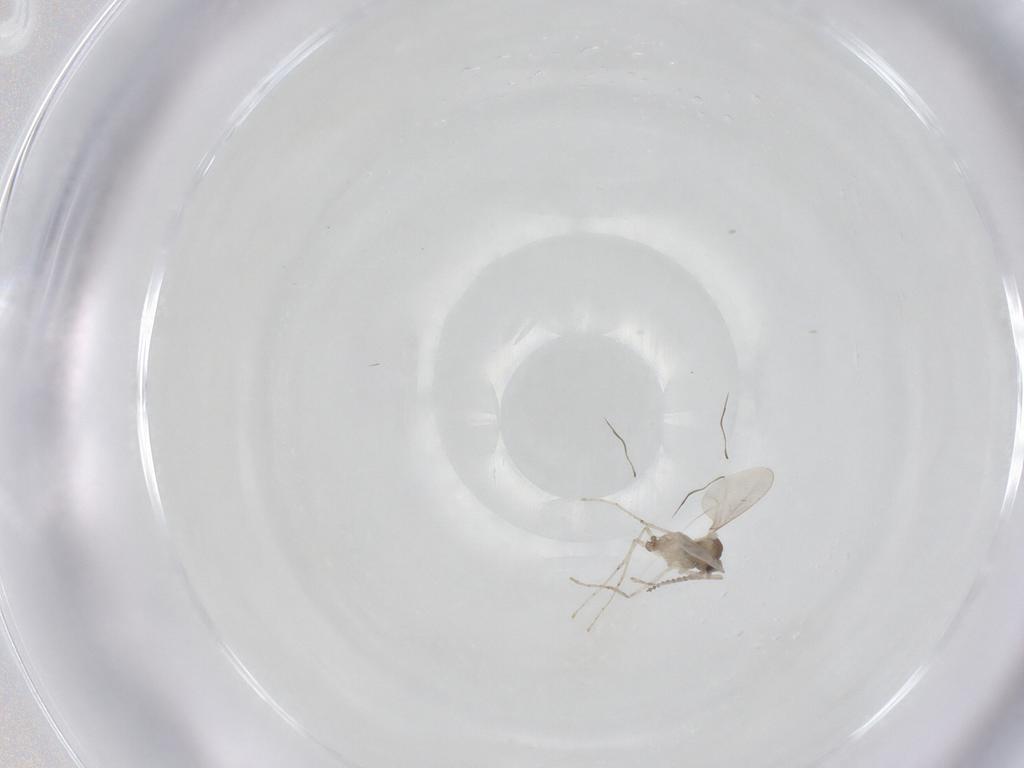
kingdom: Animalia
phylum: Arthropoda
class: Insecta
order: Diptera
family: Cecidomyiidae
